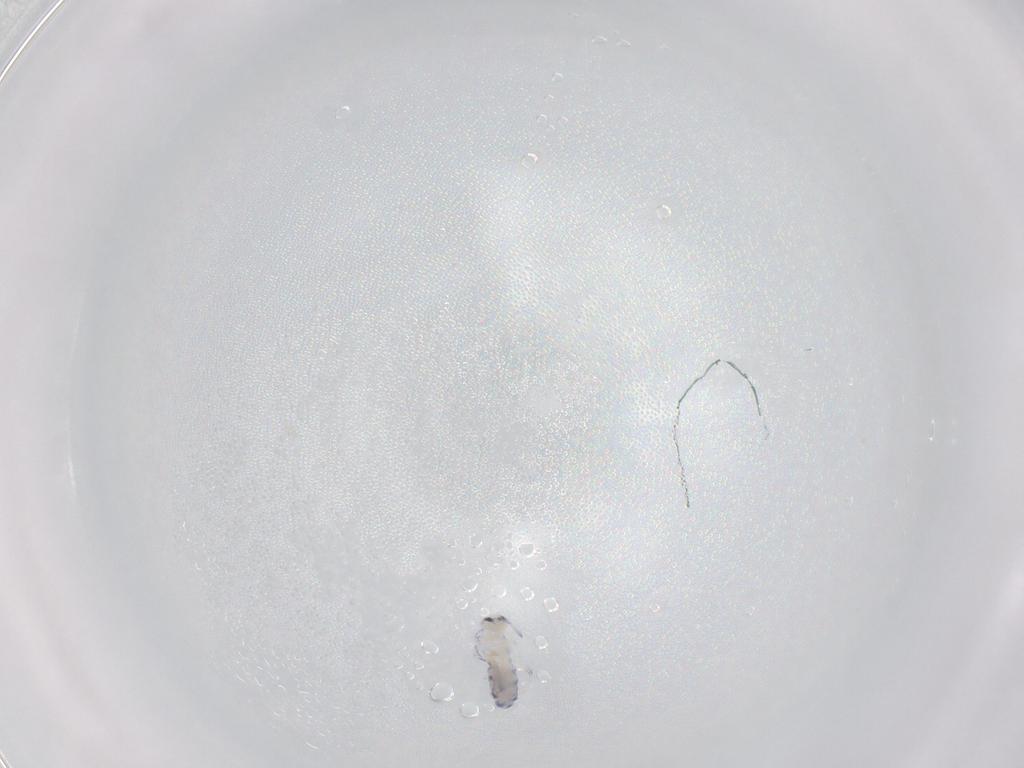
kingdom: Animalia
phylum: Arthropoda
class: Collembola
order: Entomobryomorpha
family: Entomobryidae
